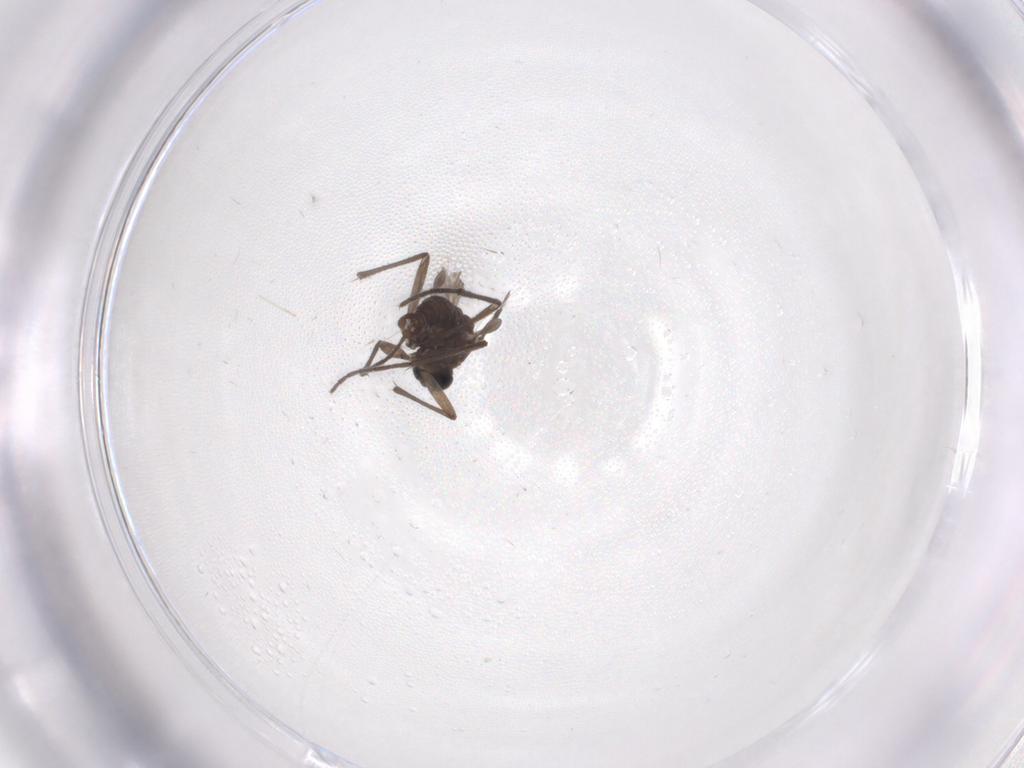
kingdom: Animalia
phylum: Arthropoda
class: Insecta
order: Diptera
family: Sciaridae
